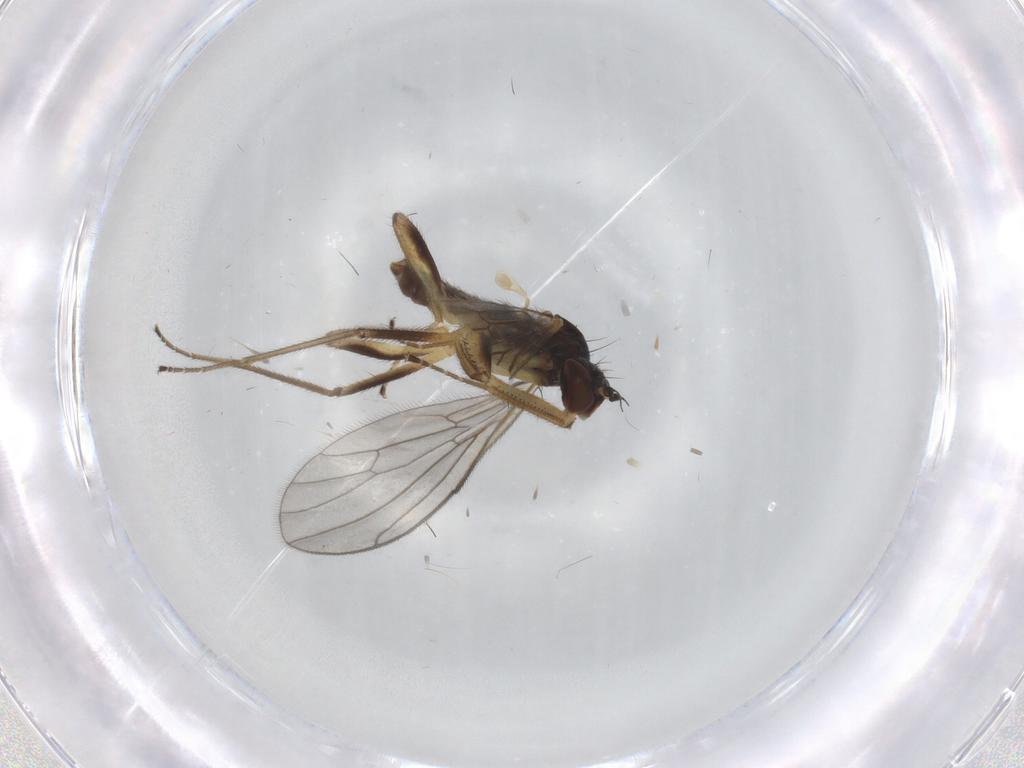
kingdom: Animalia
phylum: Arthropoda
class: Insecta
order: Diptera
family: Empididae
